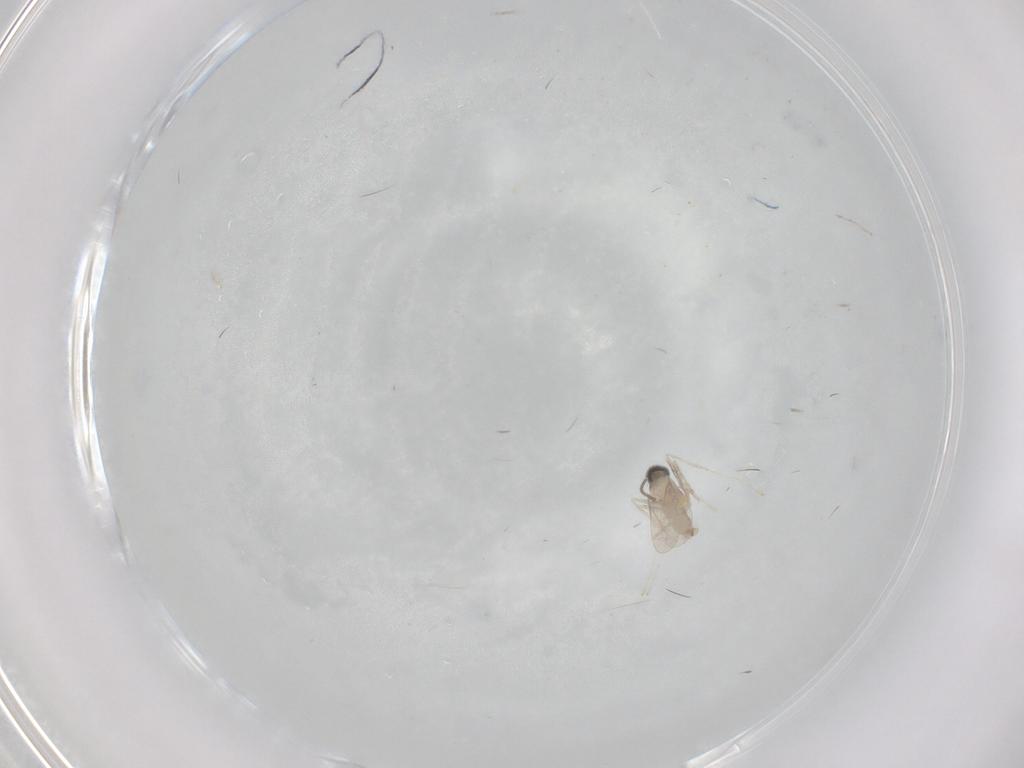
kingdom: Animalia
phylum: Arthropoda
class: Insecta
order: Diptera
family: Cecidomyiidae
